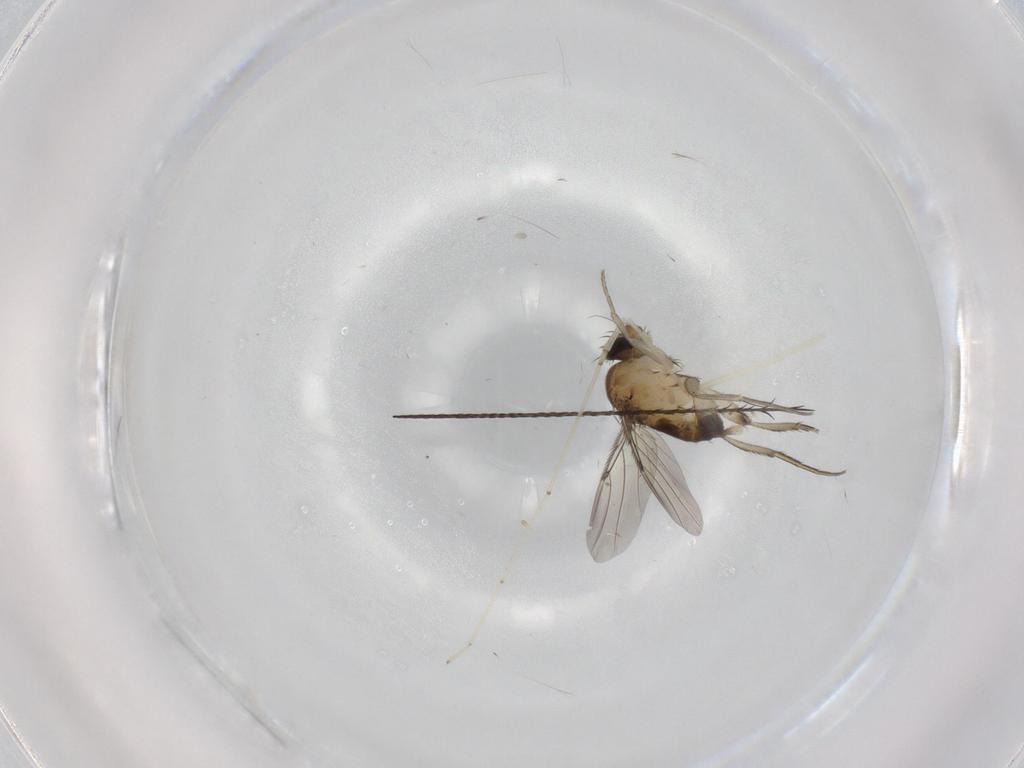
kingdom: Animalia
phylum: Arthropoda
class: Insecta
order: Diptera
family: Cecidomyiidae
